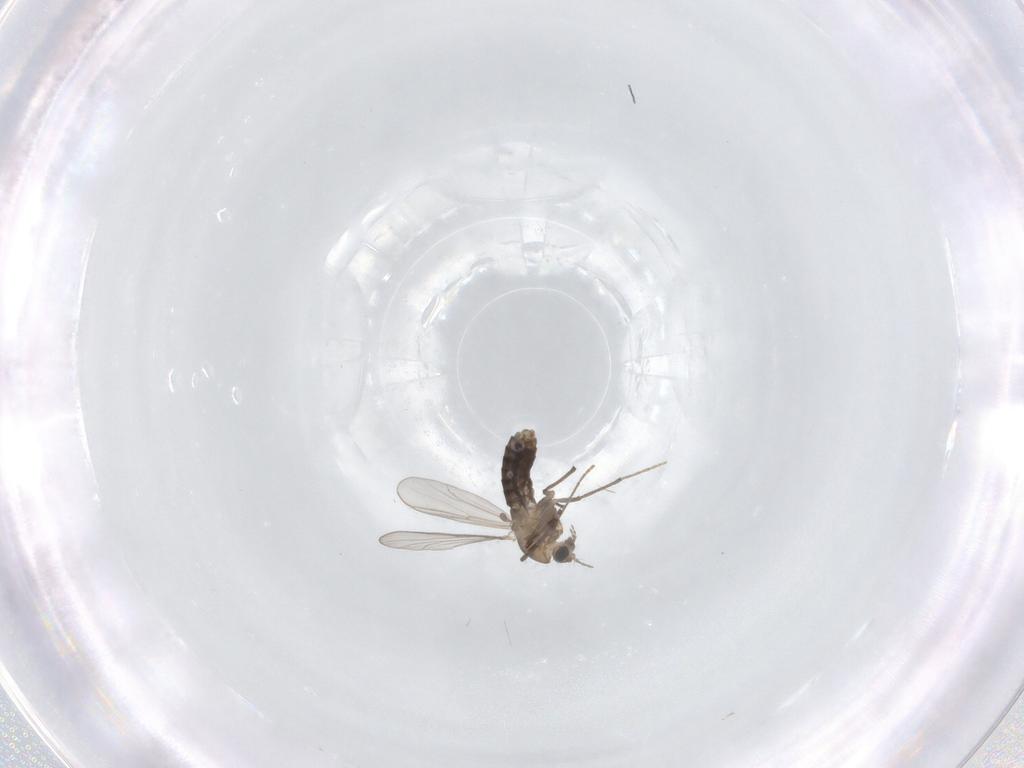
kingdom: Animalia
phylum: Arthropoda
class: Insecta
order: Diptera
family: Chironomidae
